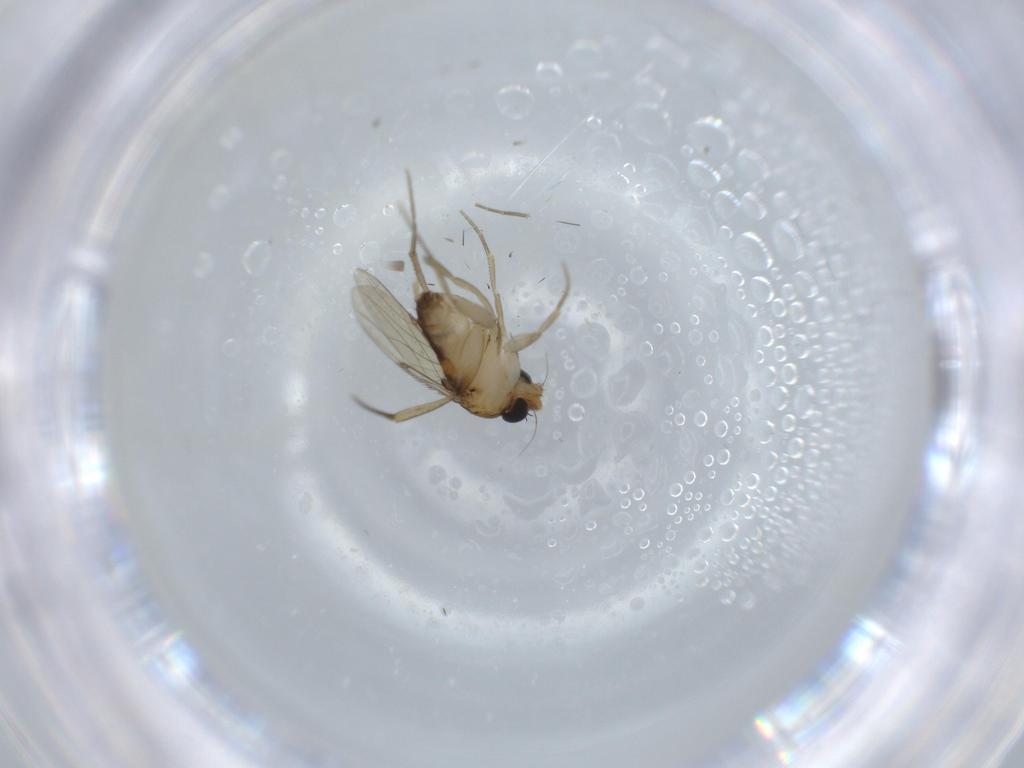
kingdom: Animalia
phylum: Arthropoda
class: Insecta
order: Diptera
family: Phoridae
